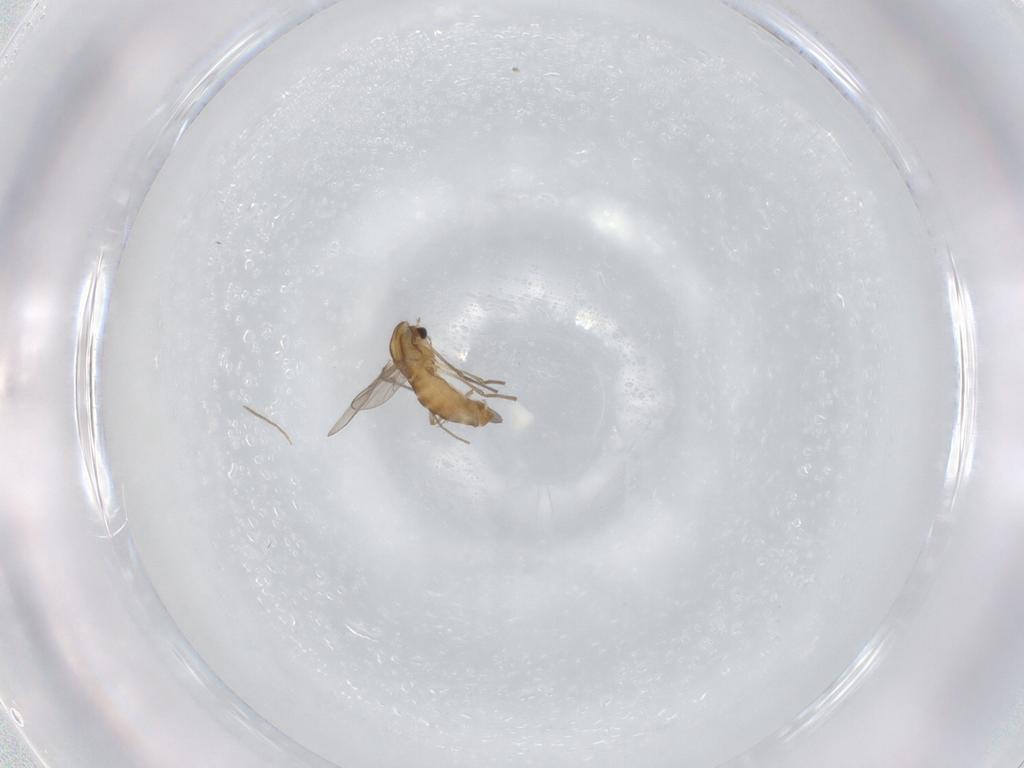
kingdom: Animalia
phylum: Arthropoda
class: Insecta
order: Diptera
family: Chironomidae
